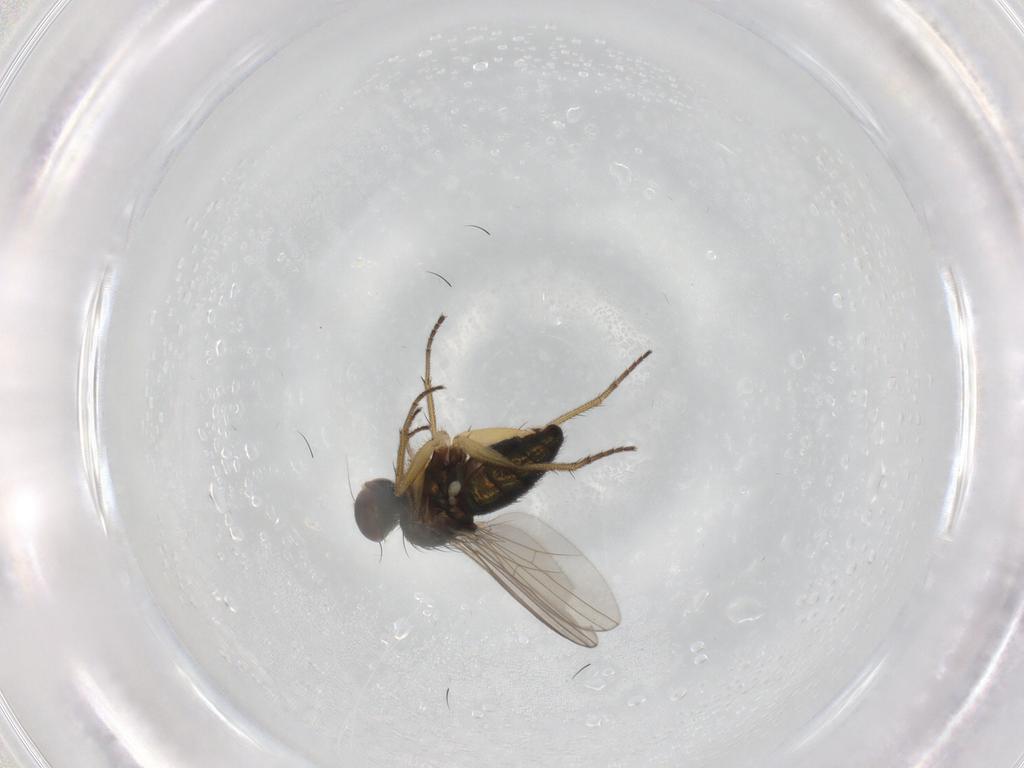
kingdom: Animalia
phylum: Arthropoda
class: Insecta
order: Diptera
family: Dolichopodidae
